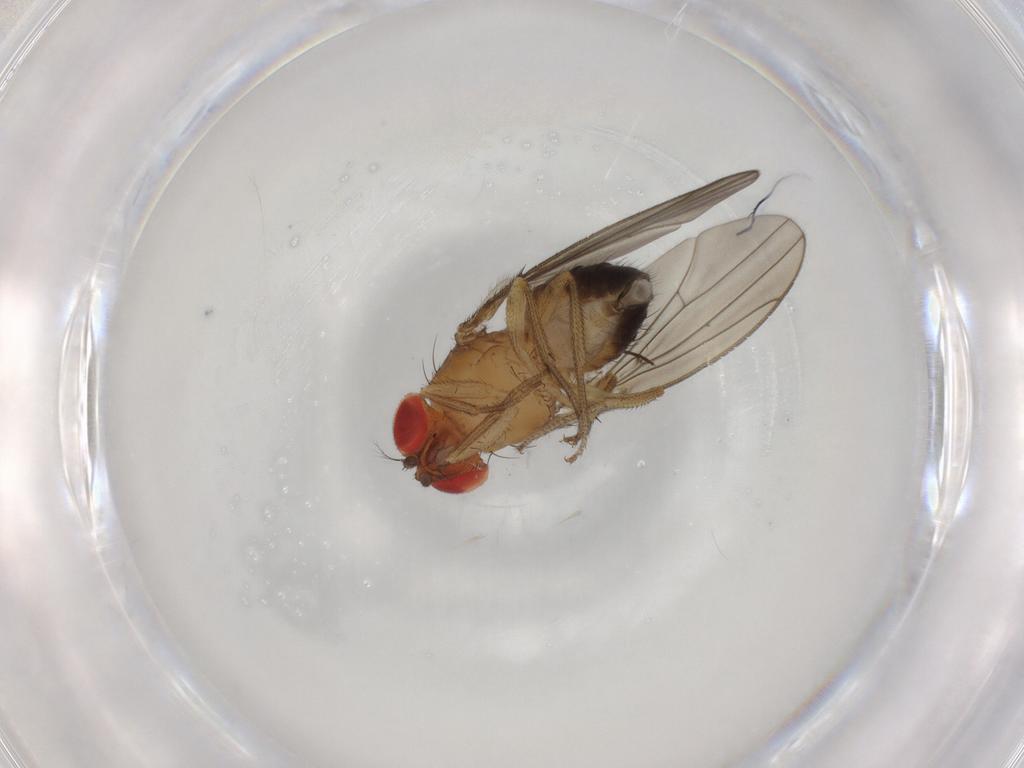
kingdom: Animalia
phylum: Arthropoda
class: Insecta
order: Diptera
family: Drosophilidae
